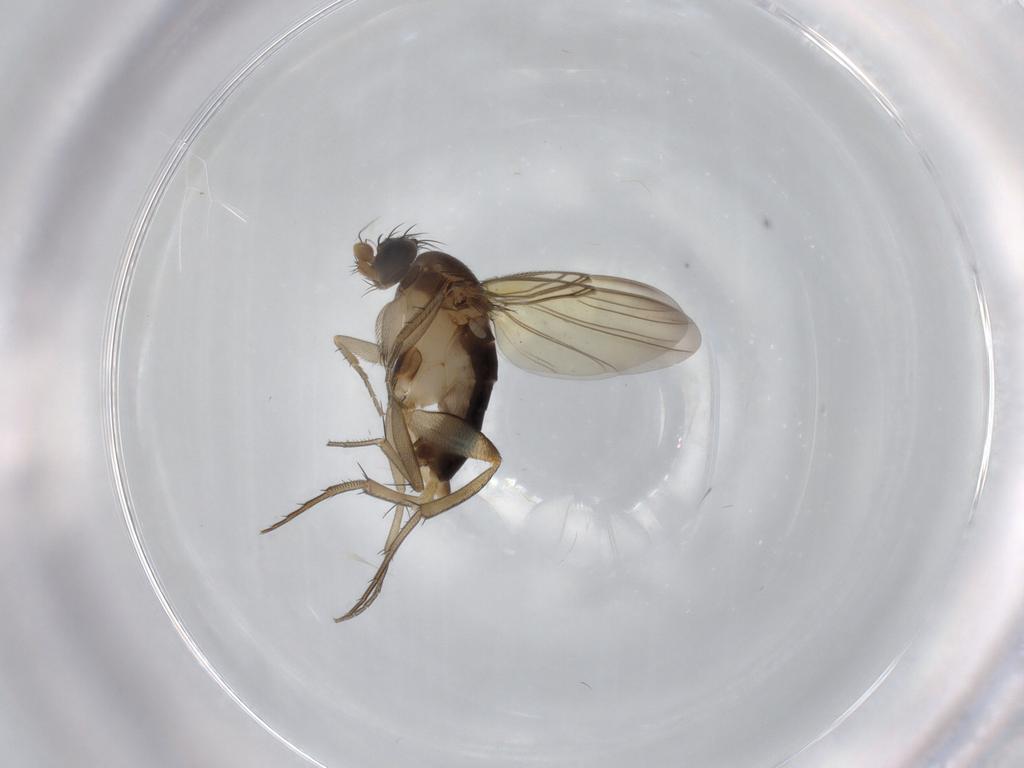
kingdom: Animalia
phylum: Arthropoda
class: Insecta
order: Diptera
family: Phoridae
